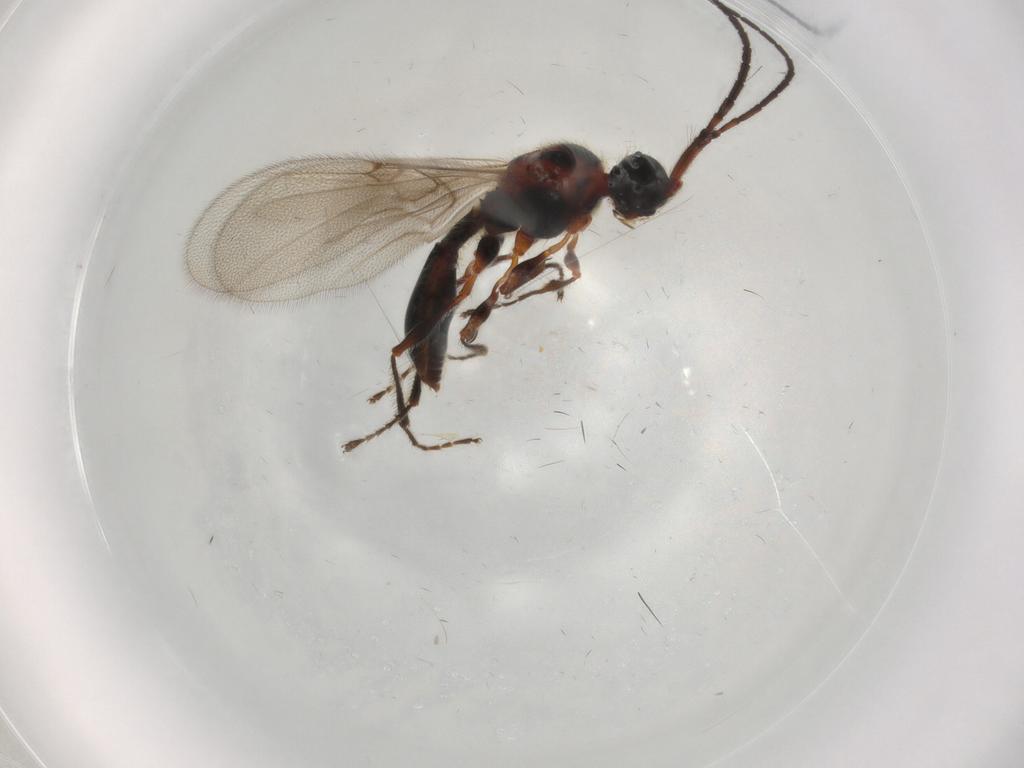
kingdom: Animalia
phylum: Arthropoda
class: Insecta
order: Hymenoptera
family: Diapriidae
